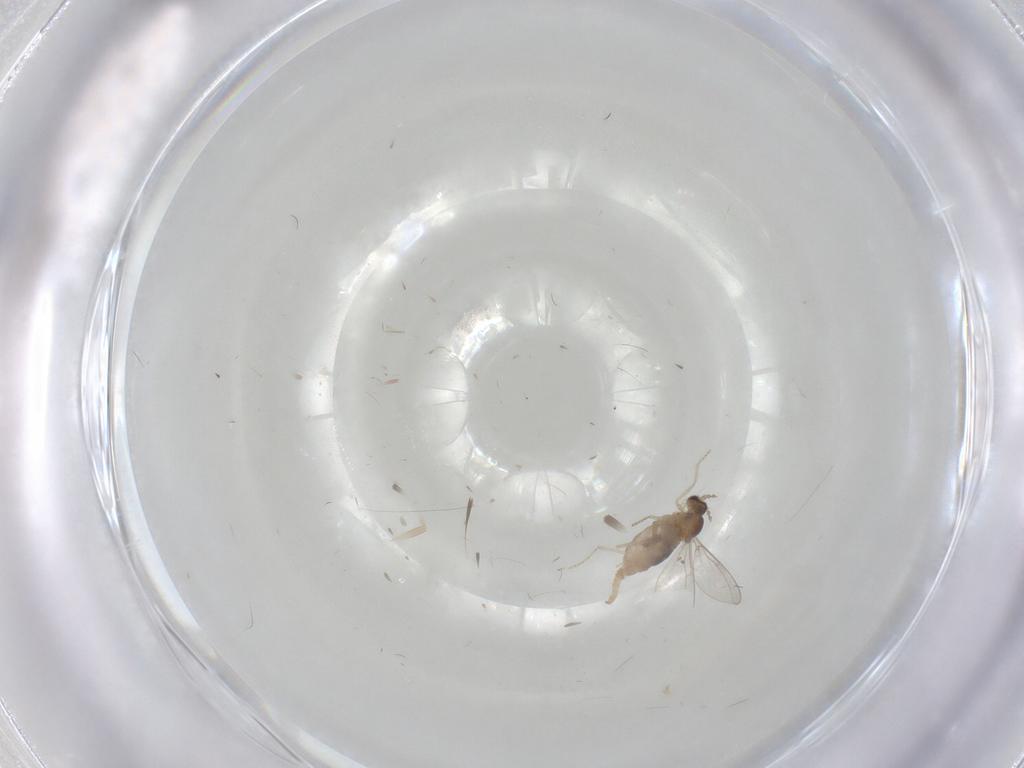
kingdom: Animalia
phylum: Arthropoda
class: Insecta
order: Diptera
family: Cecidomyiidae
